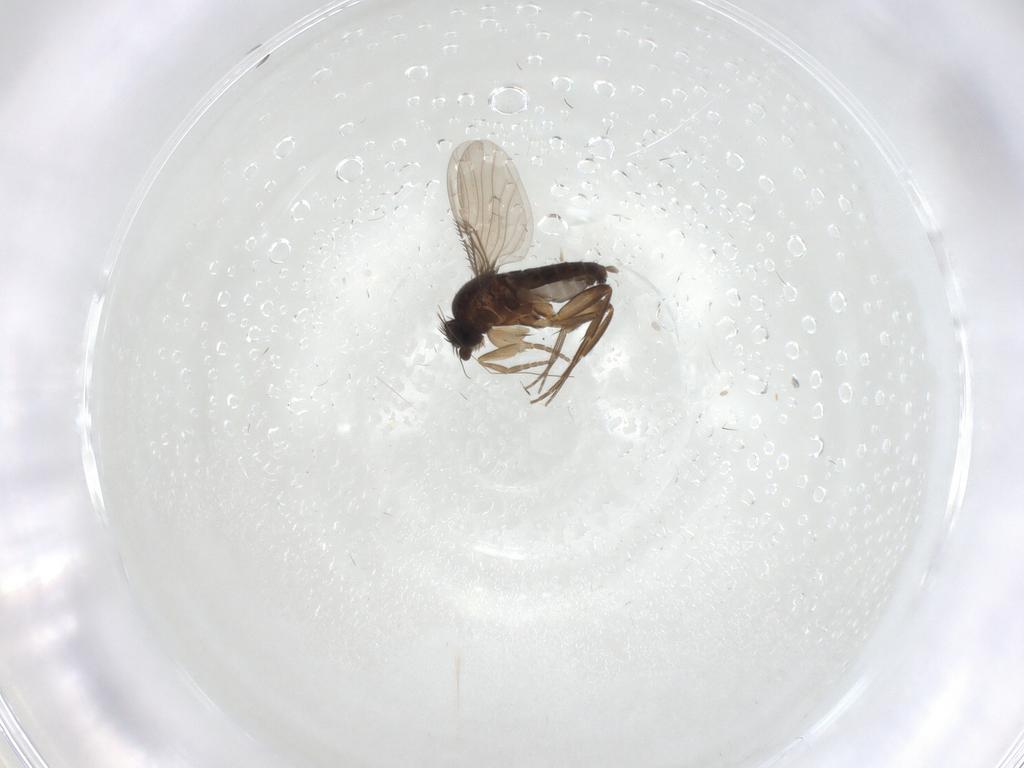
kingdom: Animalia
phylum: Arthropoda
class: Insecta
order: Diptera
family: Phoridae
